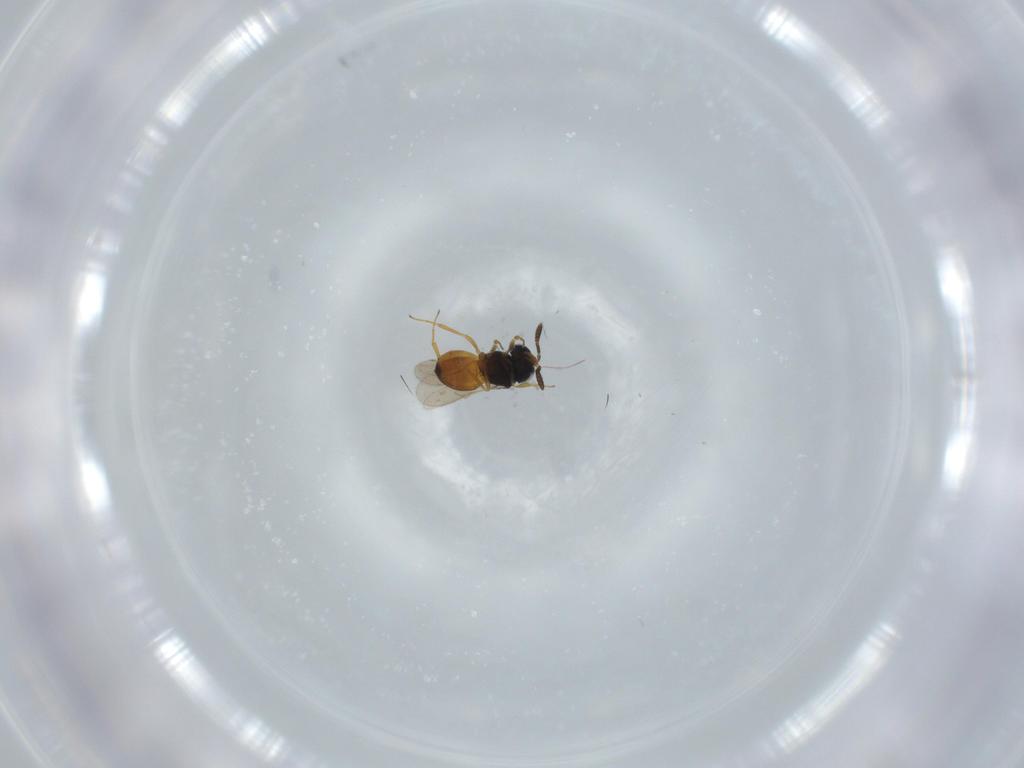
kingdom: Animalia
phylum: Arthropoda
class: Insecta
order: Hymenoptera
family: Scelionidae
